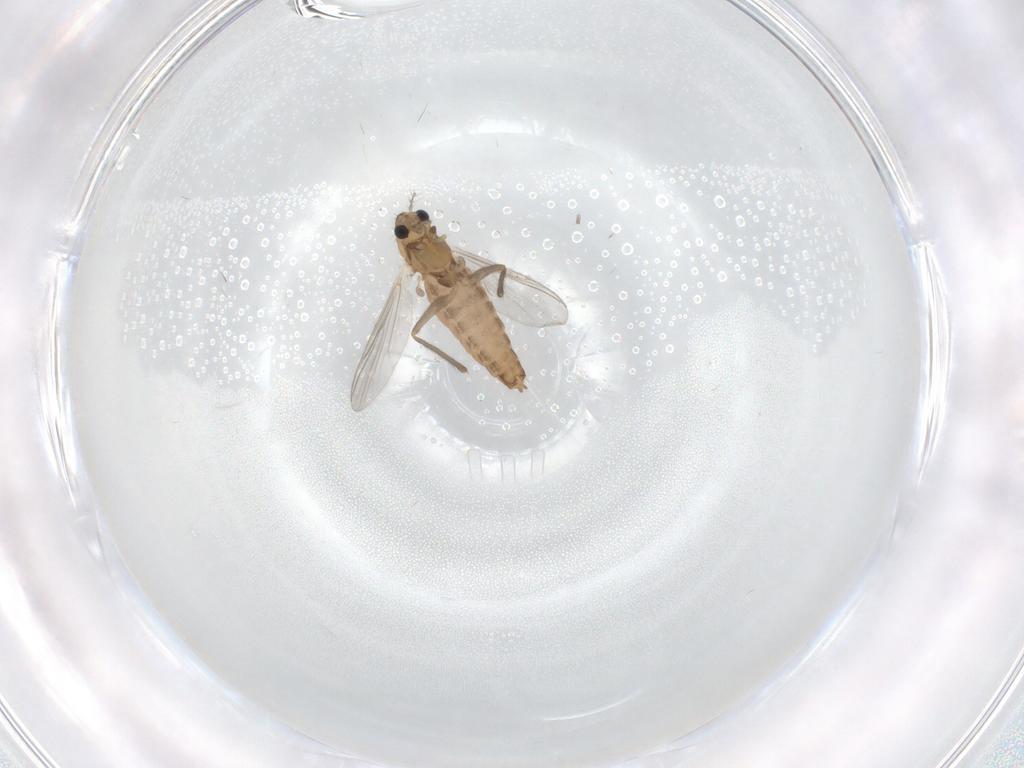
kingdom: Animalia
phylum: Arthropoda
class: Insecta
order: Diptera
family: Chironomidae
